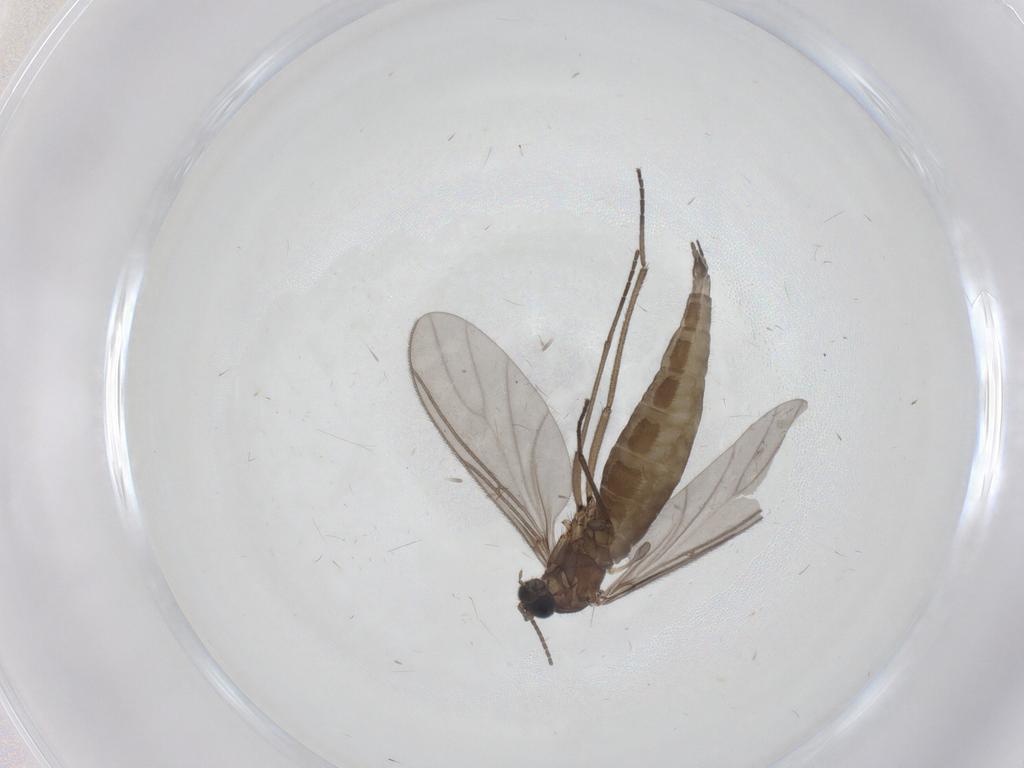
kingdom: Animalia
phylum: Arthropoda
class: Insecta
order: Diptera
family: Sciaridae
